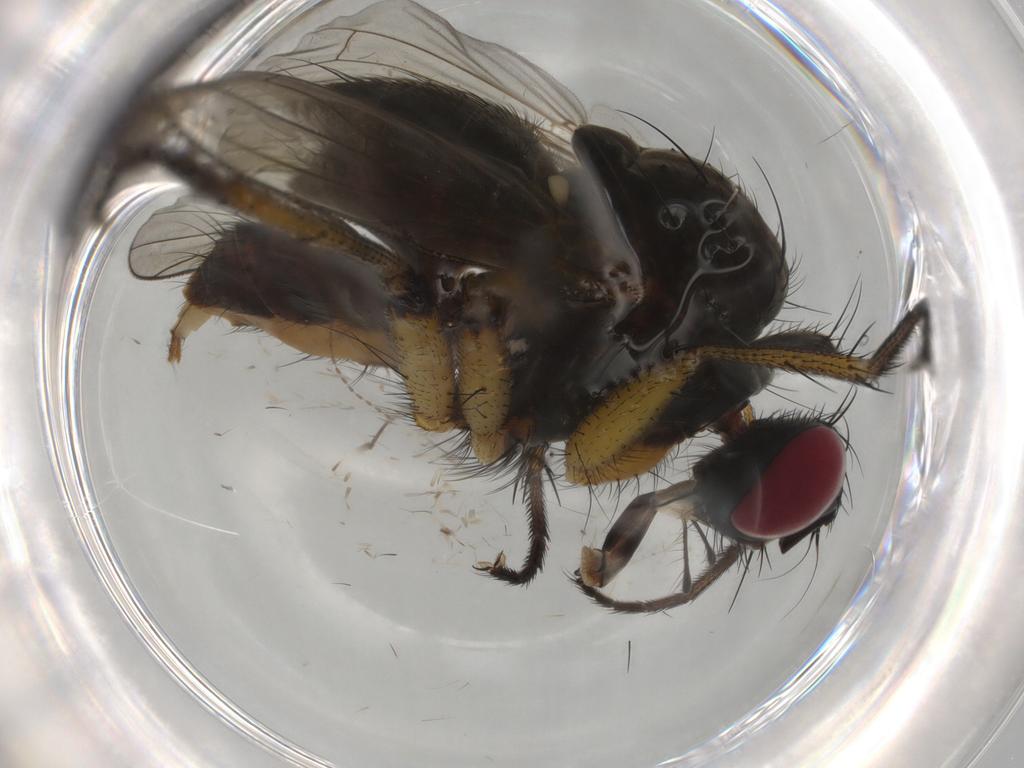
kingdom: Animalia
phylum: Arthropoda
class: Insecta
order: Diptera
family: Muscidae
